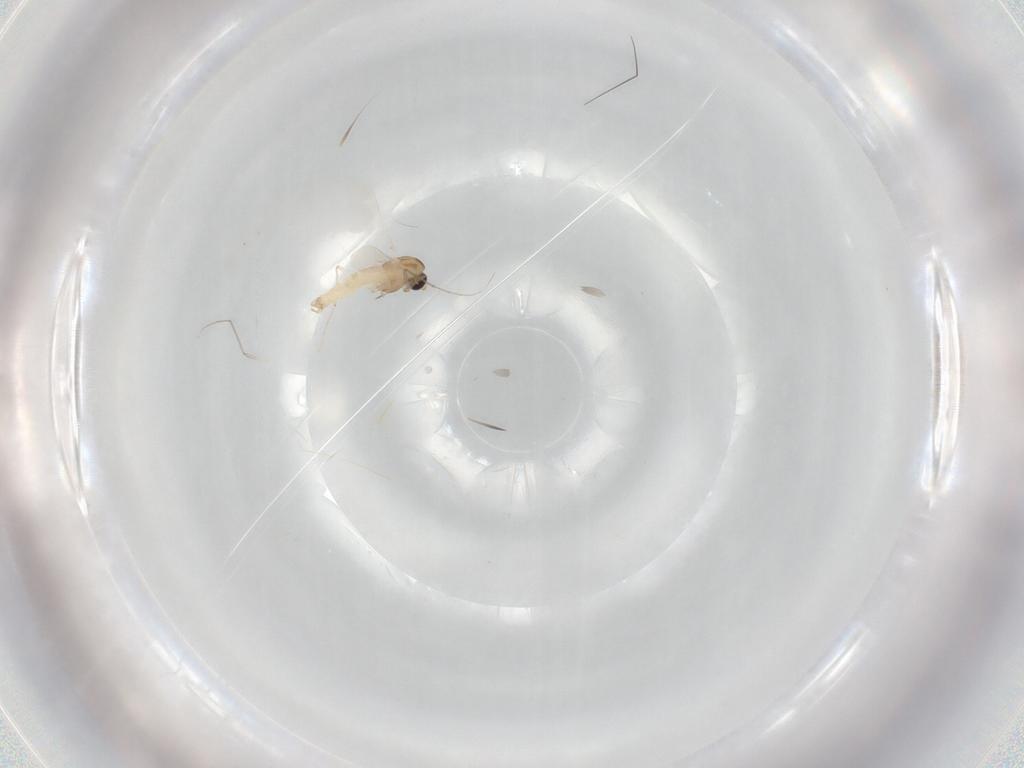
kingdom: Animalia
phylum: Arthropoda
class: Insecta
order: Diptera
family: Chironomidae
